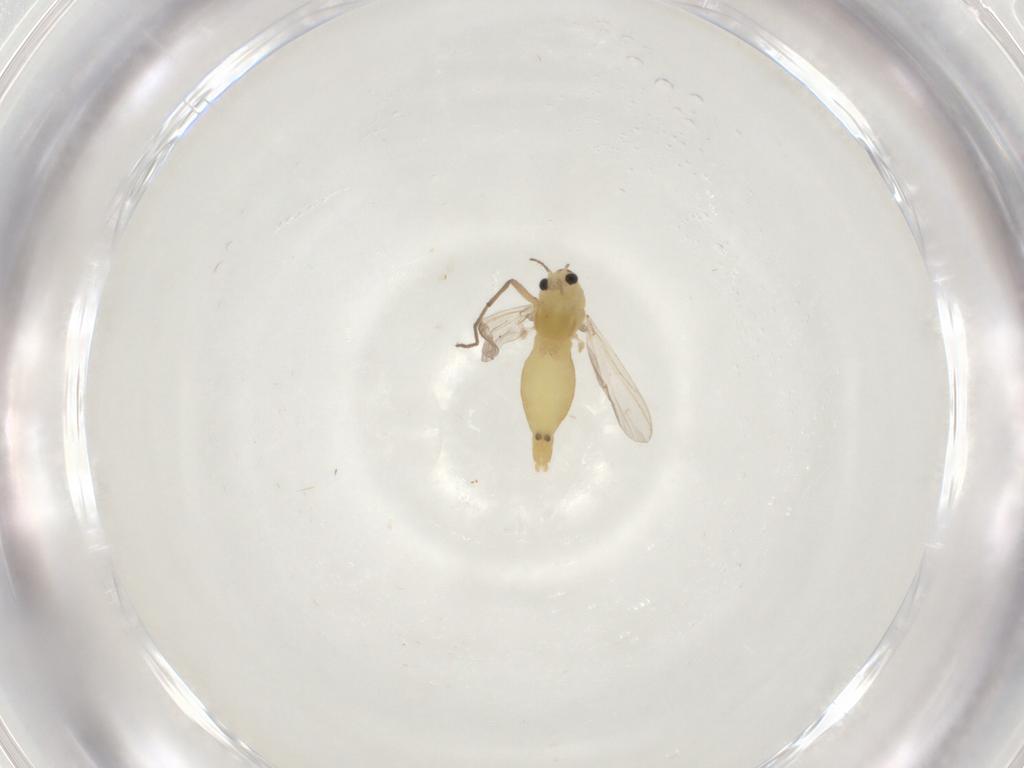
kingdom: Animalia
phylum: Arthropoda
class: Insecta
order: Diptera
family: Chironomidae
